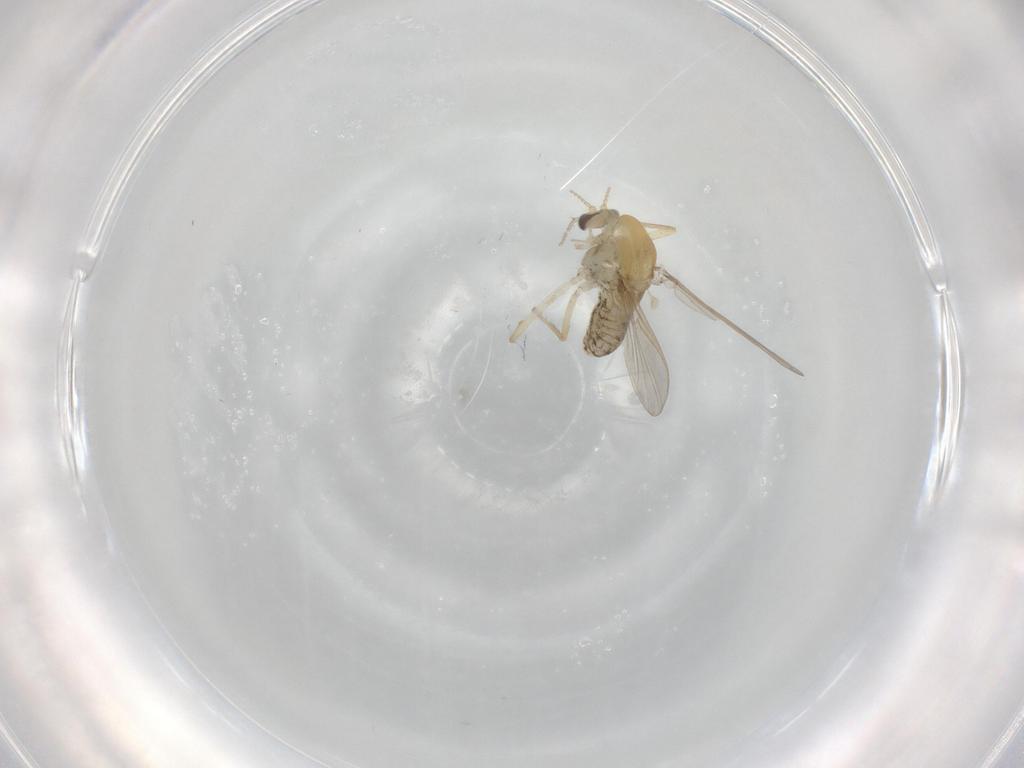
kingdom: Animalia
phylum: Arthropoda
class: Insecta
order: Diptera
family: Chironomidae
